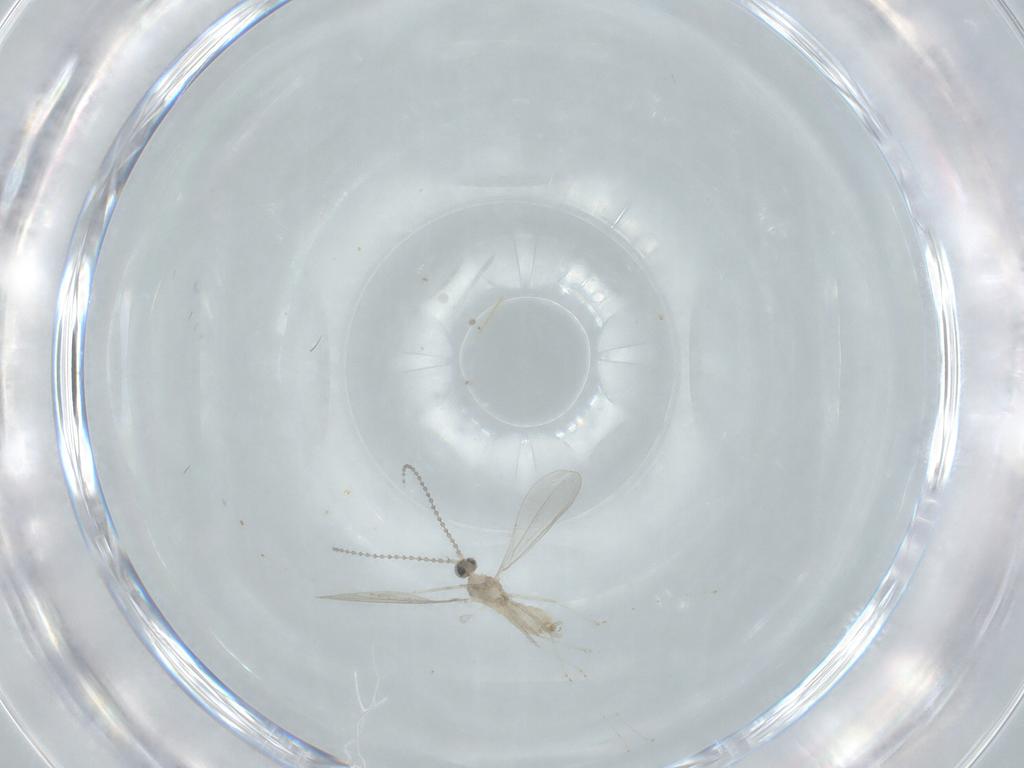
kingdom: Animalia
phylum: Arthropoda
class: Insecta
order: Diptera
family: Cecidomyiidae
